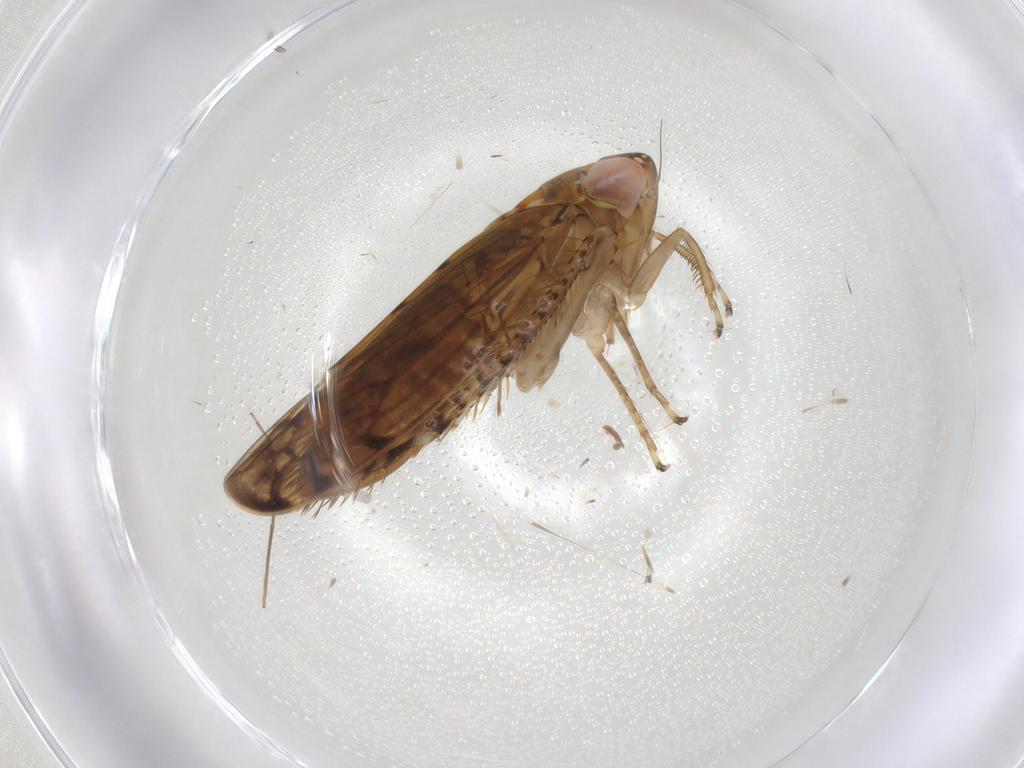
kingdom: Animalia
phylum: Arthropoda
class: Insecta
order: Hemiptera
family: Cicadellidae
